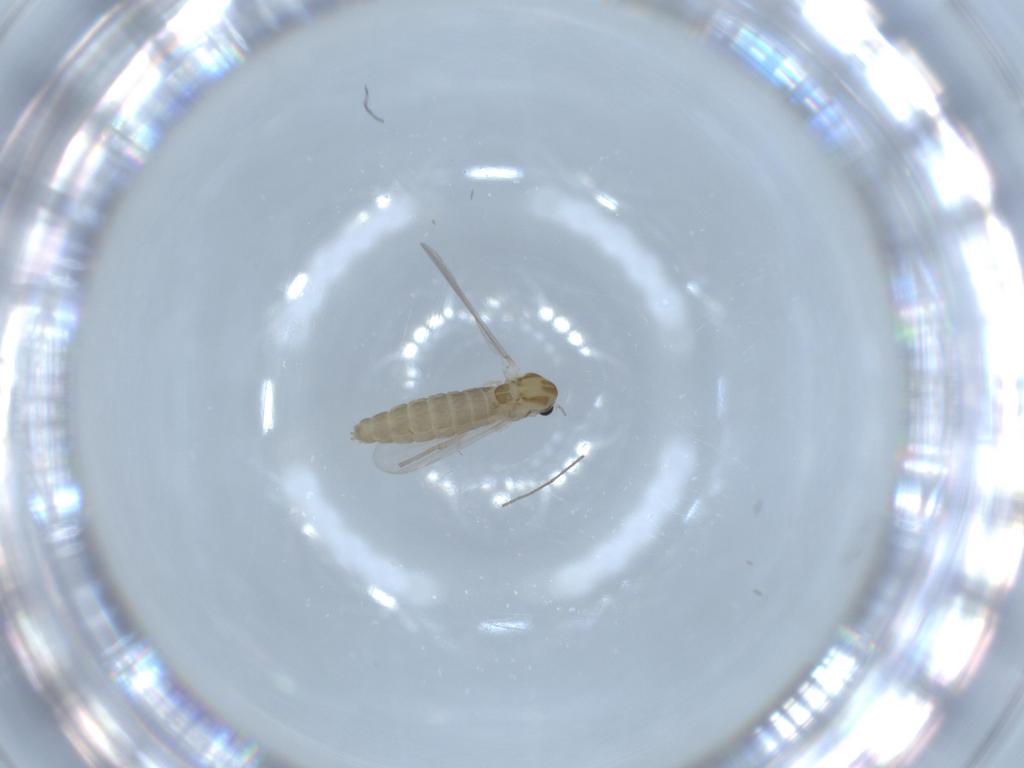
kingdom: Animalia
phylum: Arthropoda
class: Insecta
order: Diptera
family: Chironomidae
